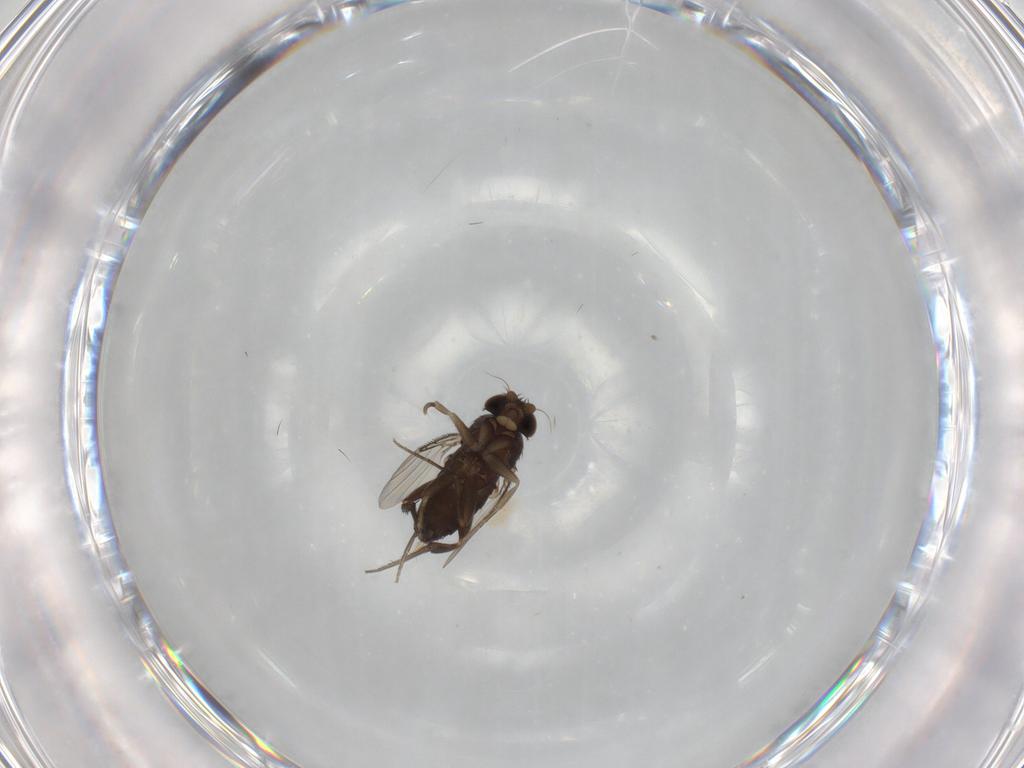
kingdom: Animalia
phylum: Arthropoda
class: Insecta
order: Diptera
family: Phoridae
